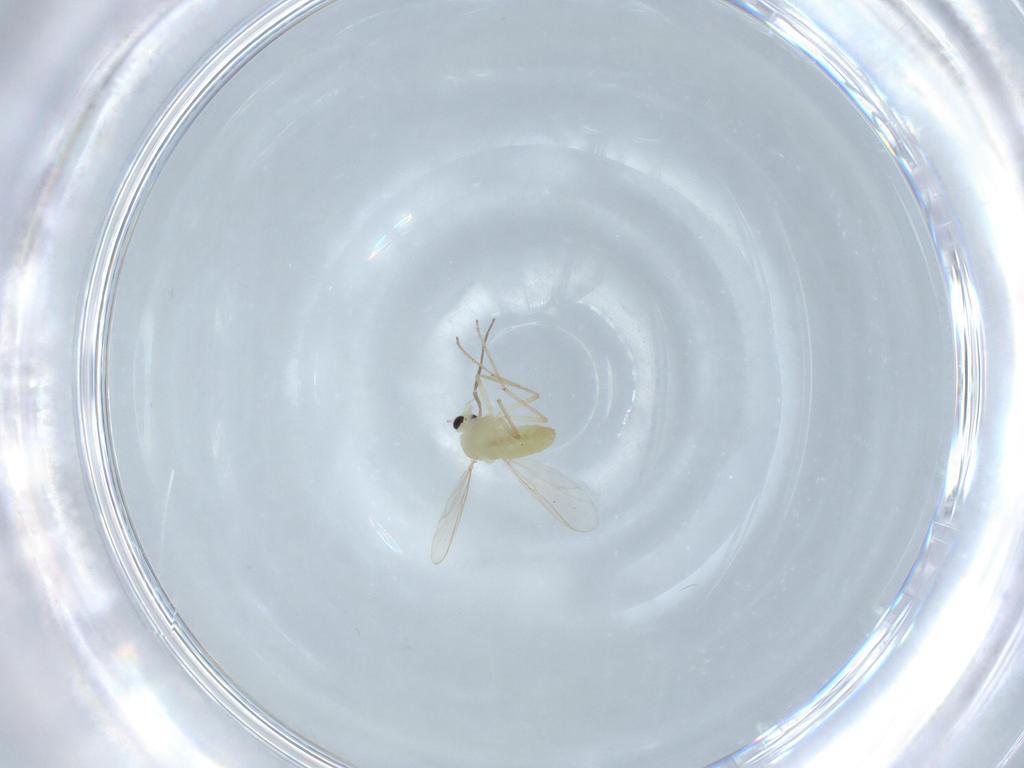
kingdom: Animalia
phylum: Arthropoda
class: Insecta
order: Diptera
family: Chironomidae
